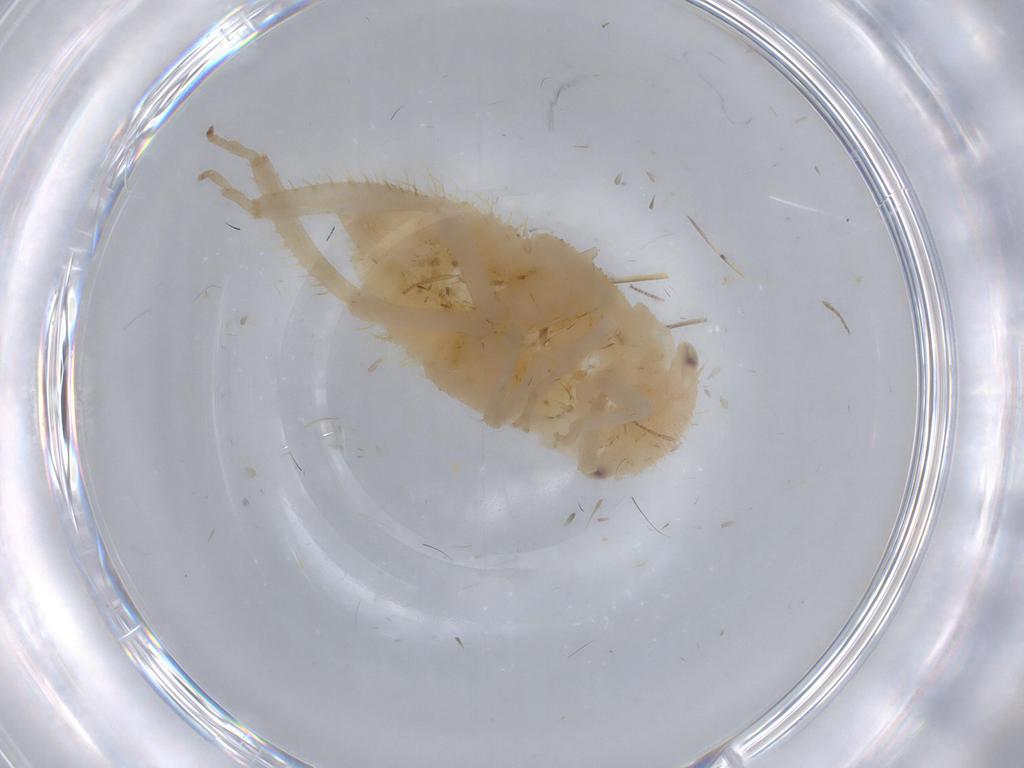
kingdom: Animalia
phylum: Arthropoda
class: Insecta
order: Hemiptera
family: Cicadellidae
